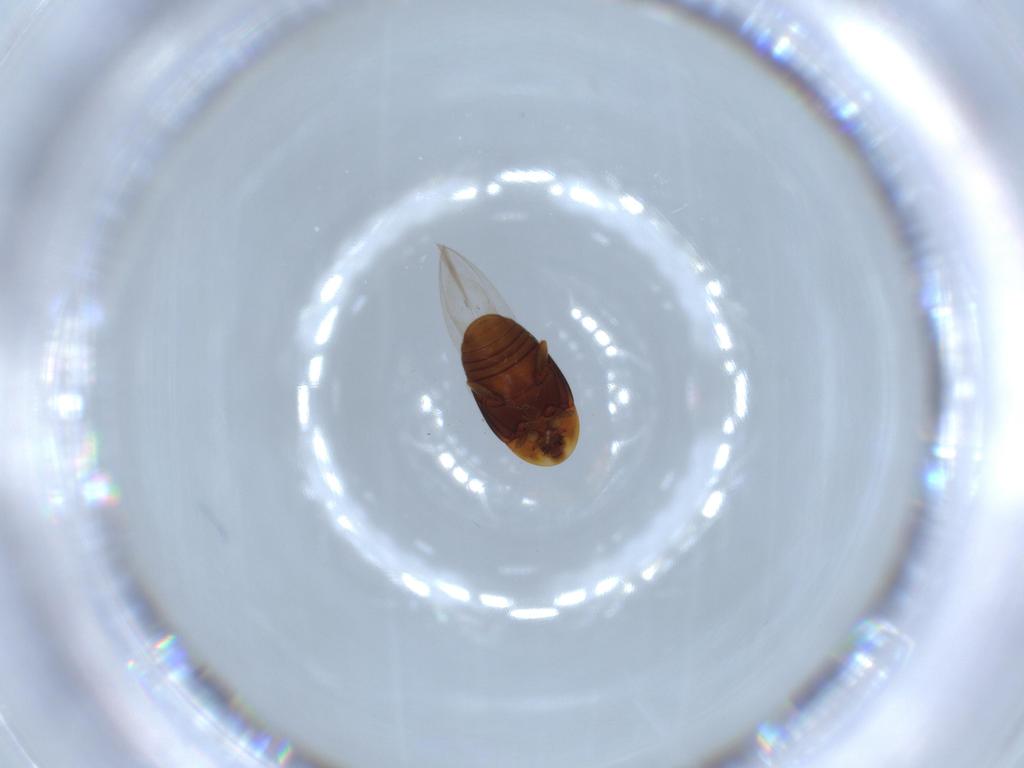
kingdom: Animalia
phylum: Arthropoda
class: Insecta
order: Coleoptera
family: Corylophidae
